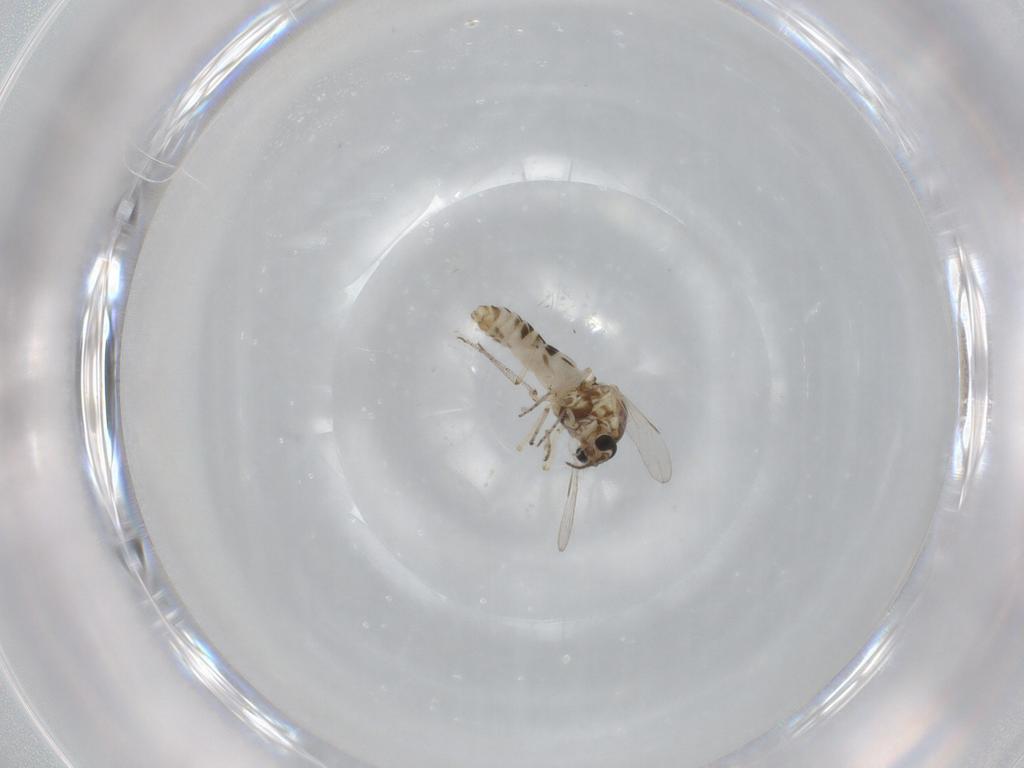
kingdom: Animalia
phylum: Arthropoda
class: Insecta
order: Diptera
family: Ceratopogonidae
